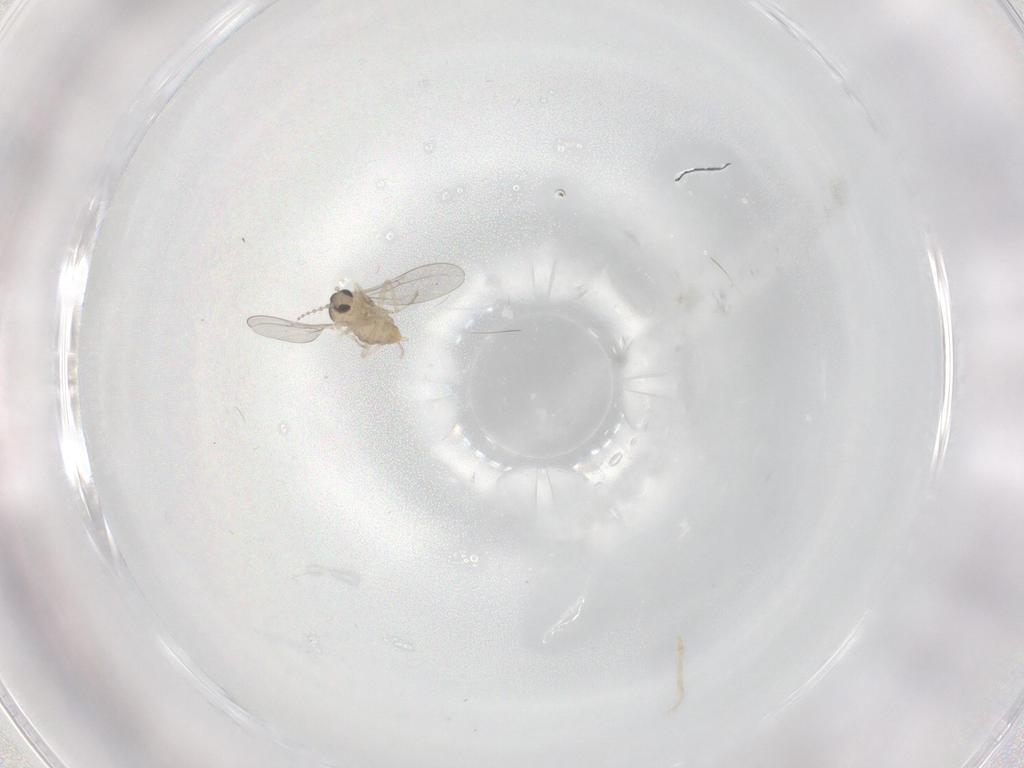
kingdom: Animalia
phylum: Arthropoda
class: Insecta
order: Diptera
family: Cecidomyiidae
